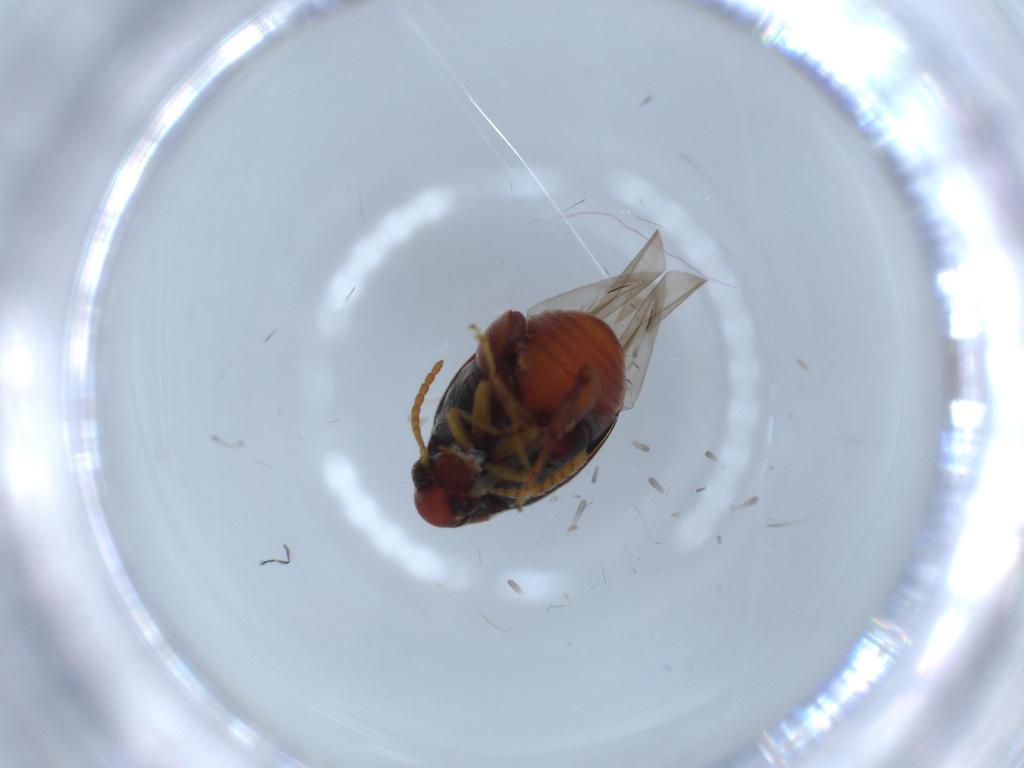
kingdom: Animalia
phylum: Arthropoda
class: Insecta
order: Coleoptera
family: Chrysomelidae
